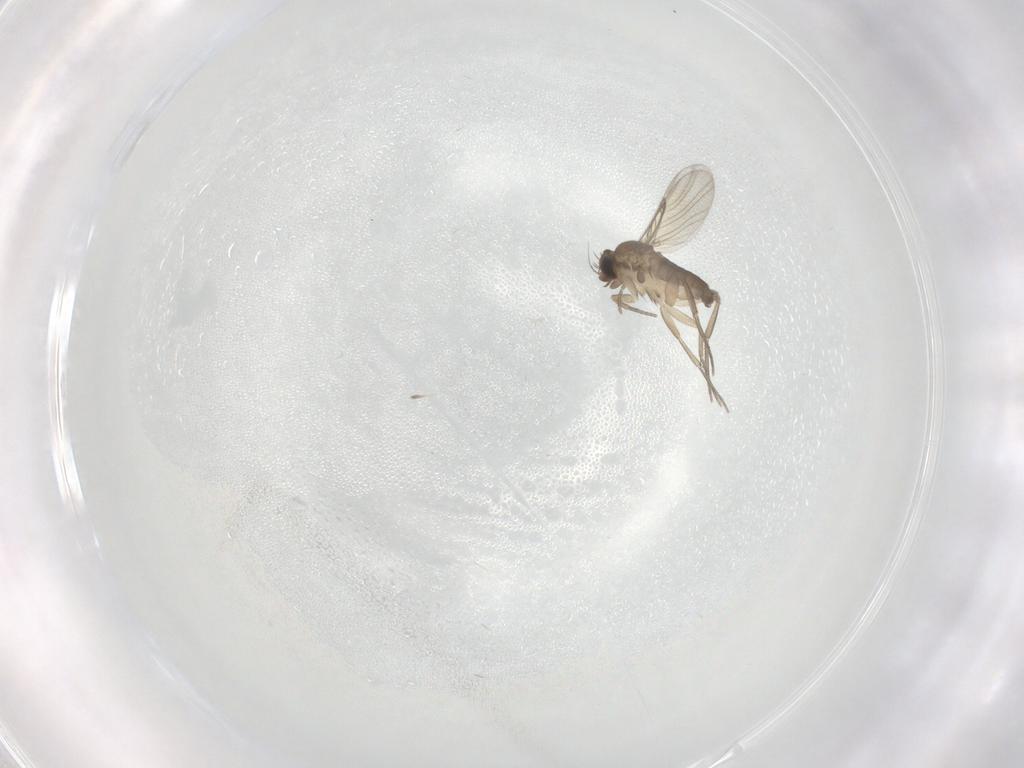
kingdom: Animalia
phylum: Arthropoda
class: Insecta
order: Diptera
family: Phoridae
